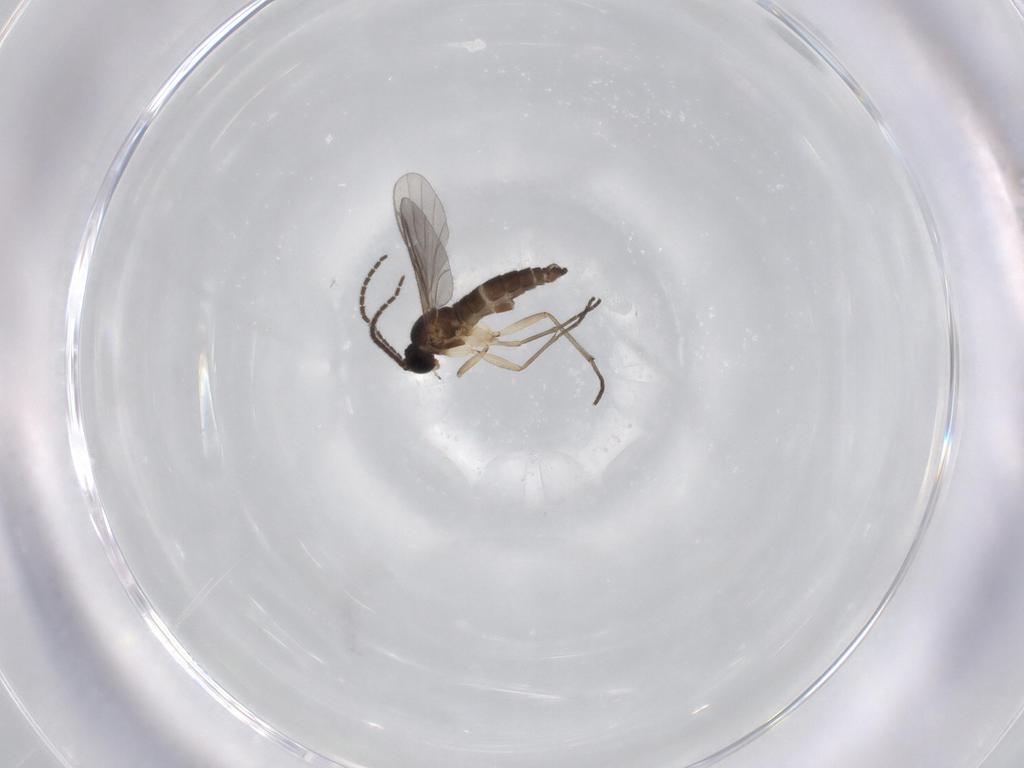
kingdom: Animalia
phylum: Arthropoda
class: Insecta
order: Diptera
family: Sciaridae
